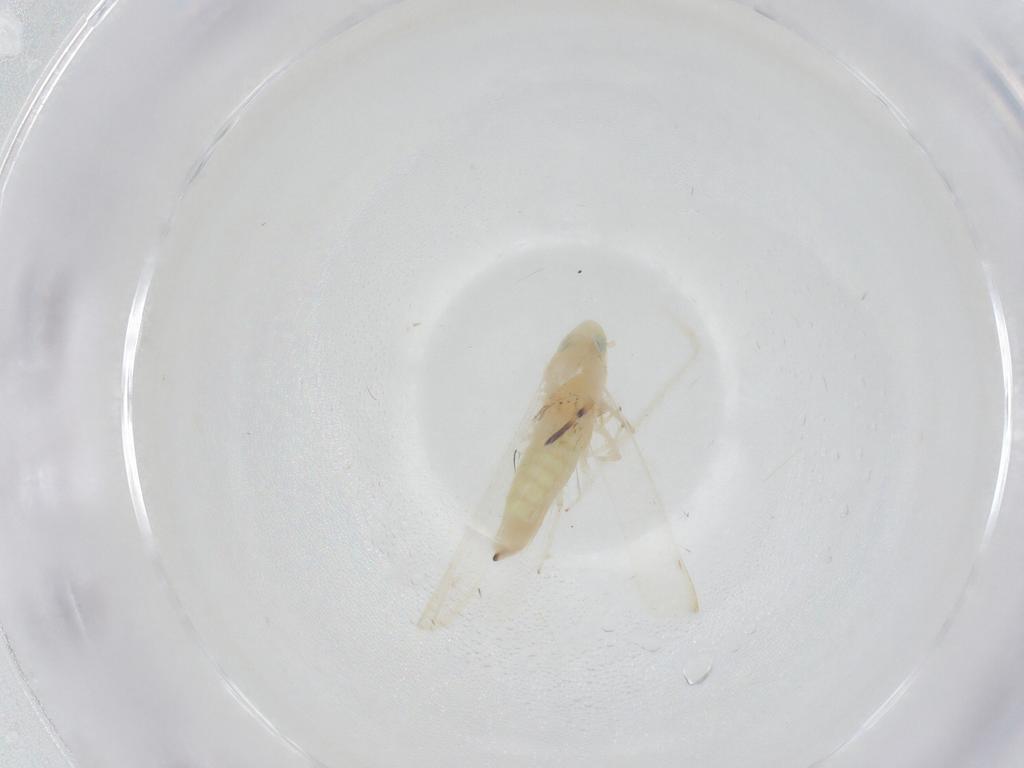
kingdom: Animalia
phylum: Arthropoda
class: Insecta
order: Hemiptera
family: Cicadellidae
